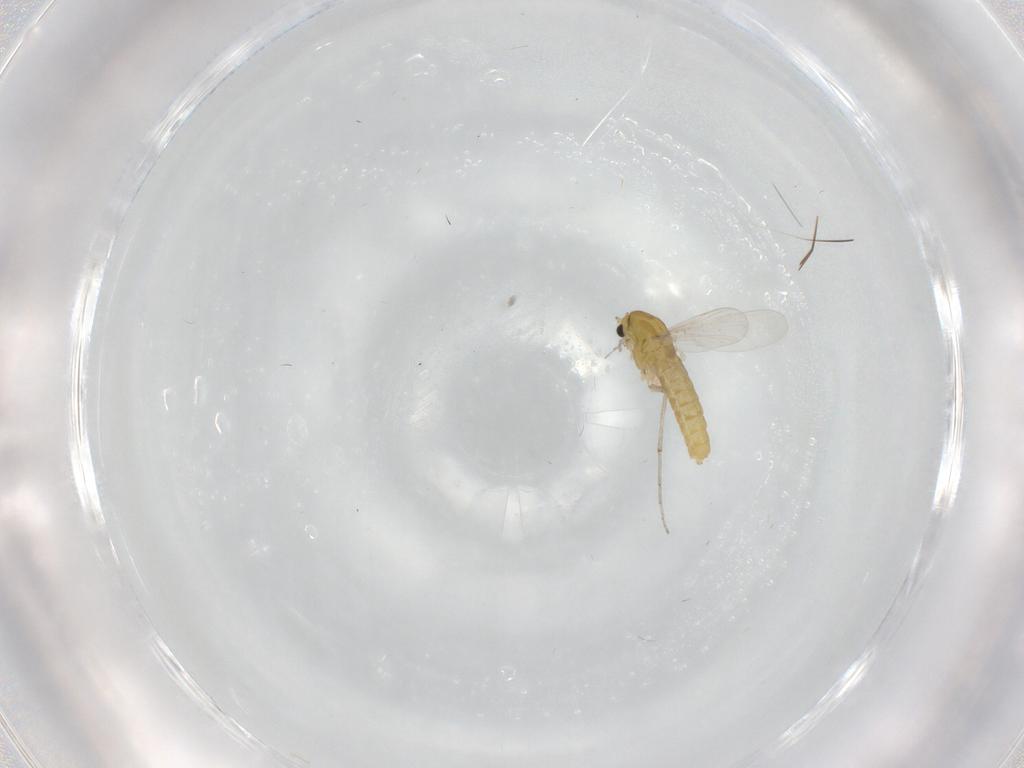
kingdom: Animalia
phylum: Arthropoda
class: Insecta
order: Diptera
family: Chironomidae
